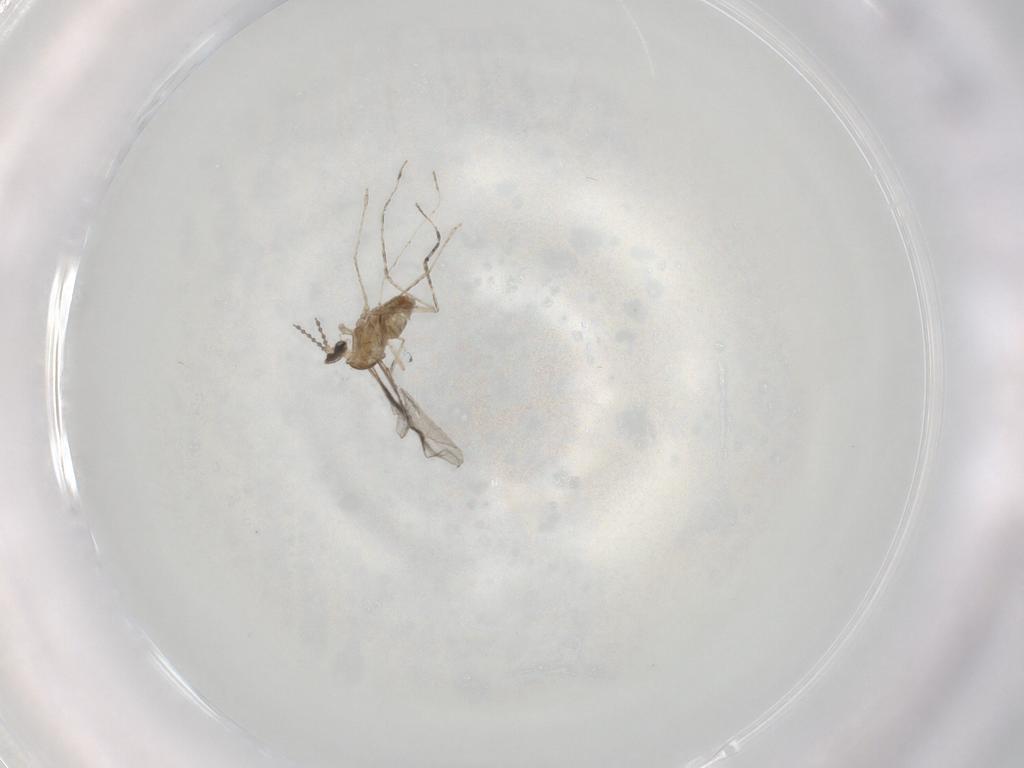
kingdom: Animalia
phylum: Arthropoda
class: Insecta
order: Diptera
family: Cecidomyiidae
